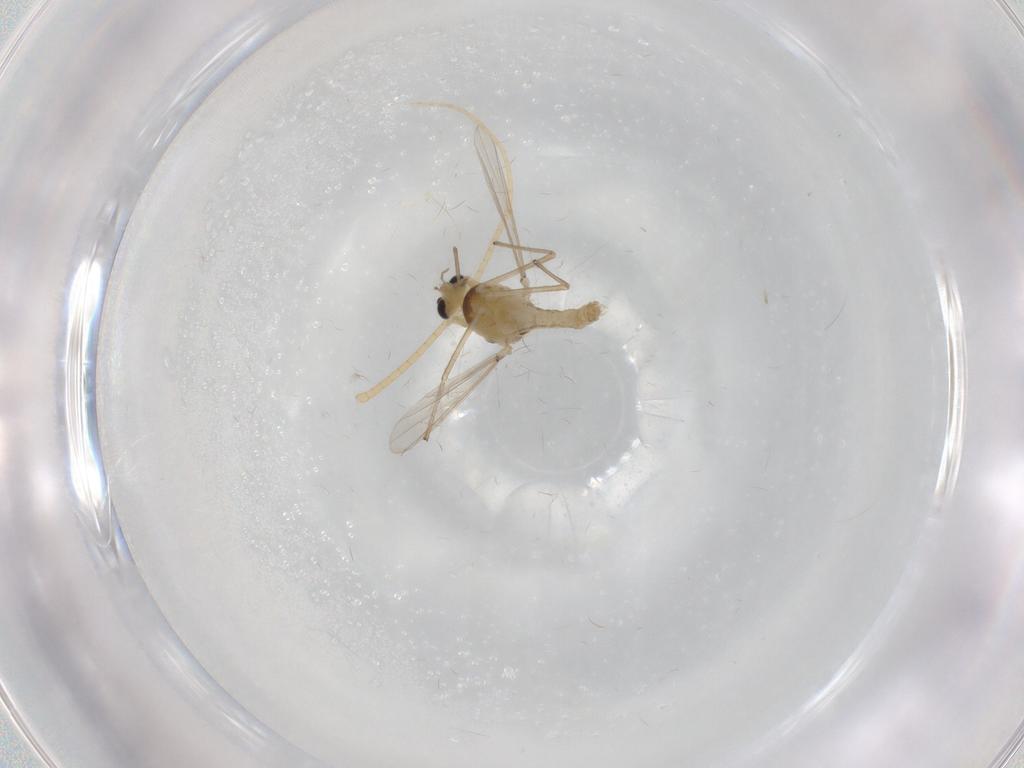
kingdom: Animalia
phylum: Arthropoda
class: Insecta
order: Diptera
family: Chironomidae
